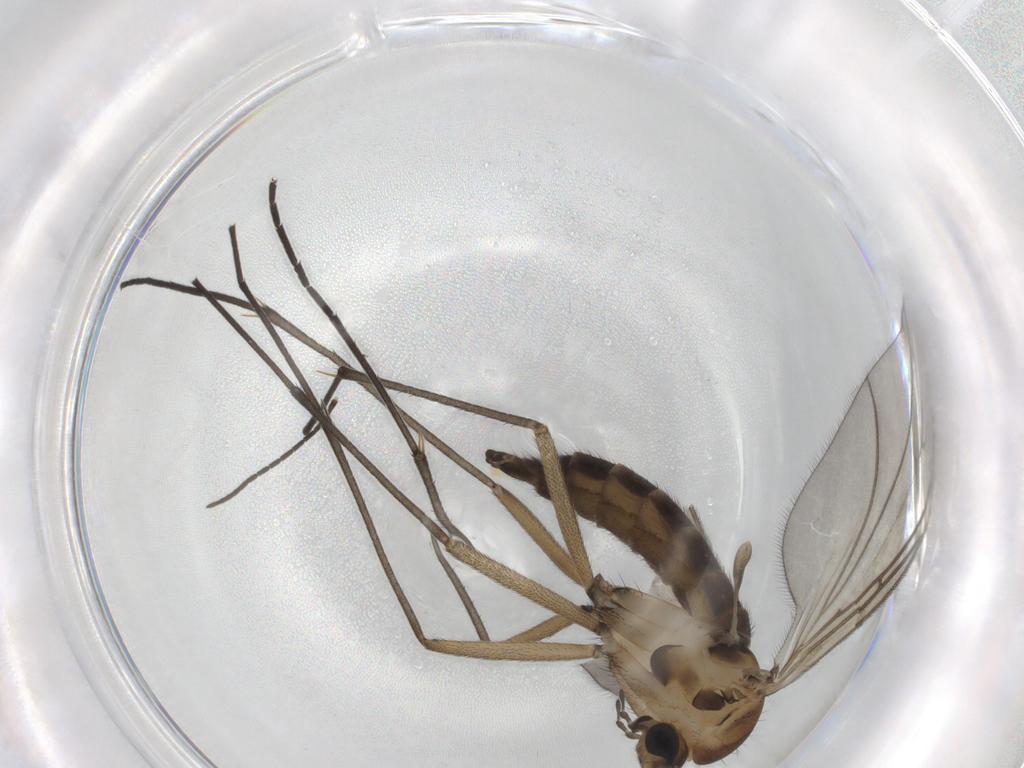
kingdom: Animalia
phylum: Arthropoda
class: Insecta
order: Diptera
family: Sciaridae
